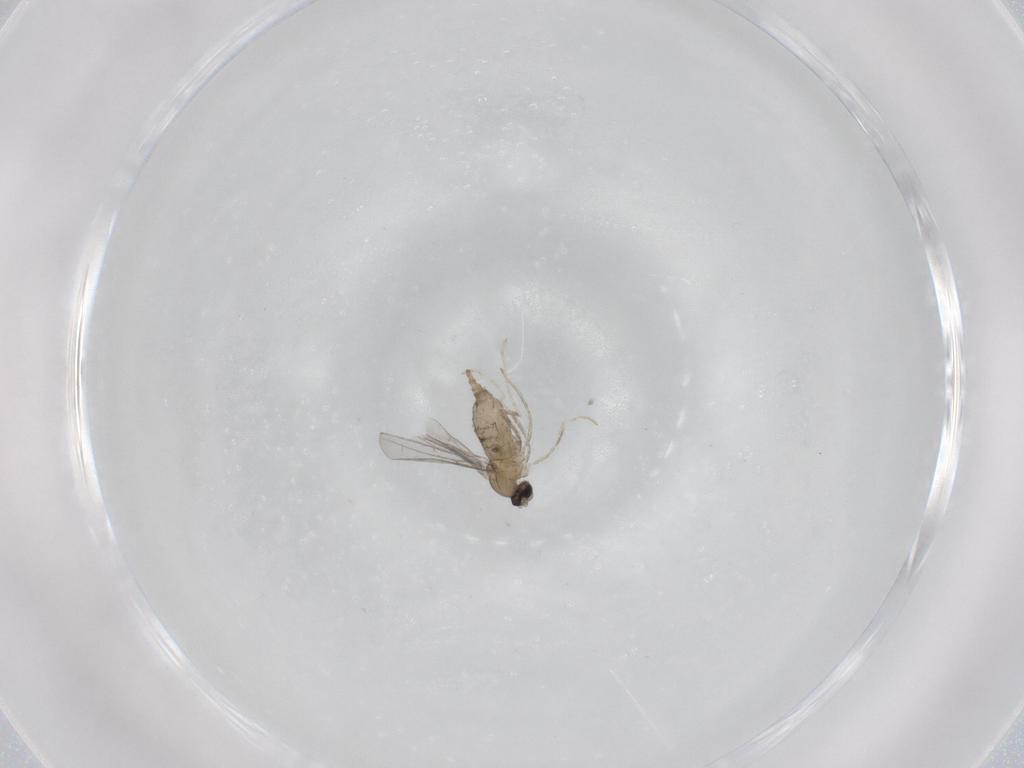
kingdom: Animalia
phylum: Arthropoda
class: Insecta
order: Diptera
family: Cecidomyiidae
